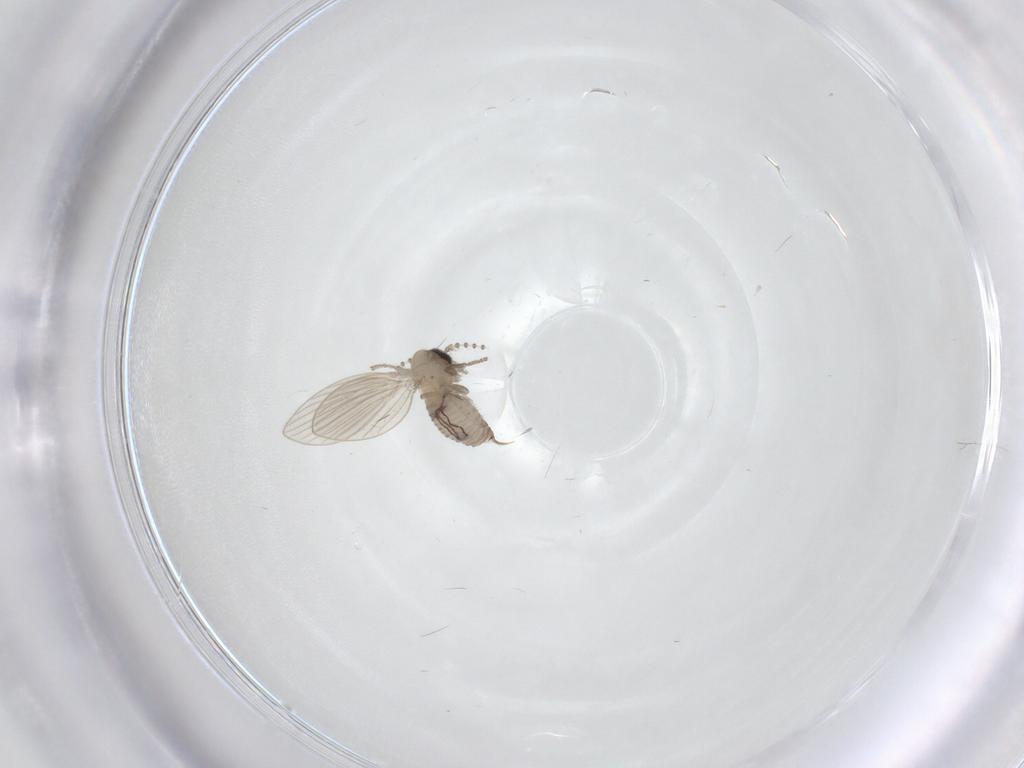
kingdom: Animalia
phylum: Arthropoda
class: Insecta
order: Diptera
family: Psychodidae
